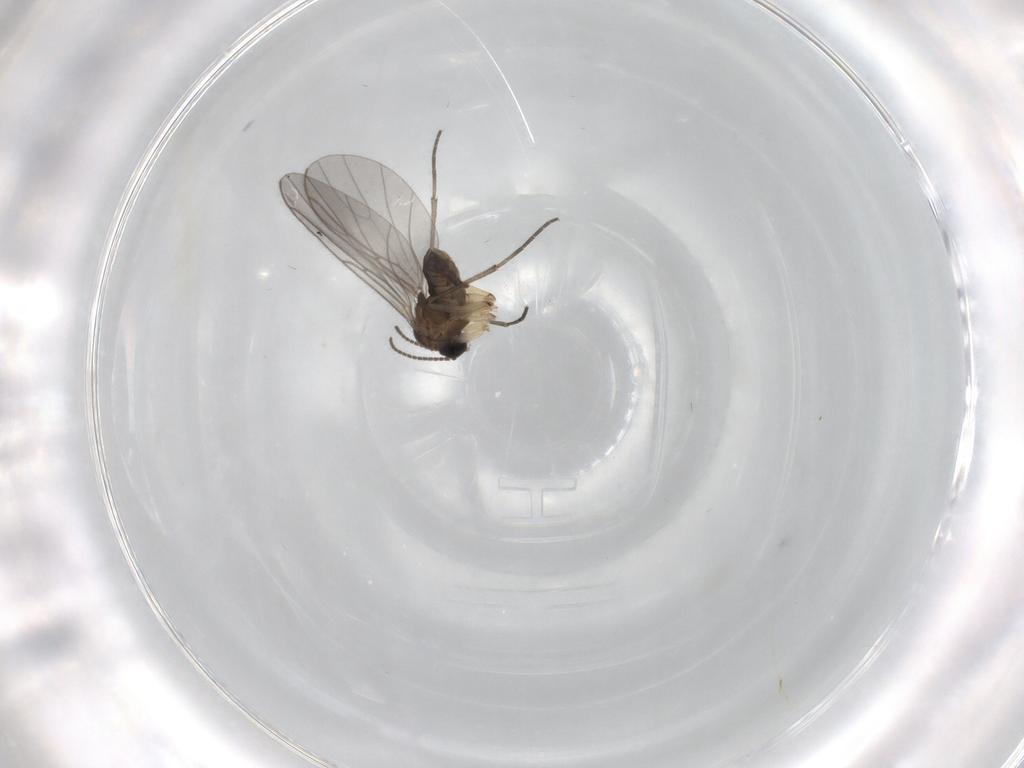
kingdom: Animalia
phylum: Arthropoda
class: Insecta
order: Diptera
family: Sciaridae
